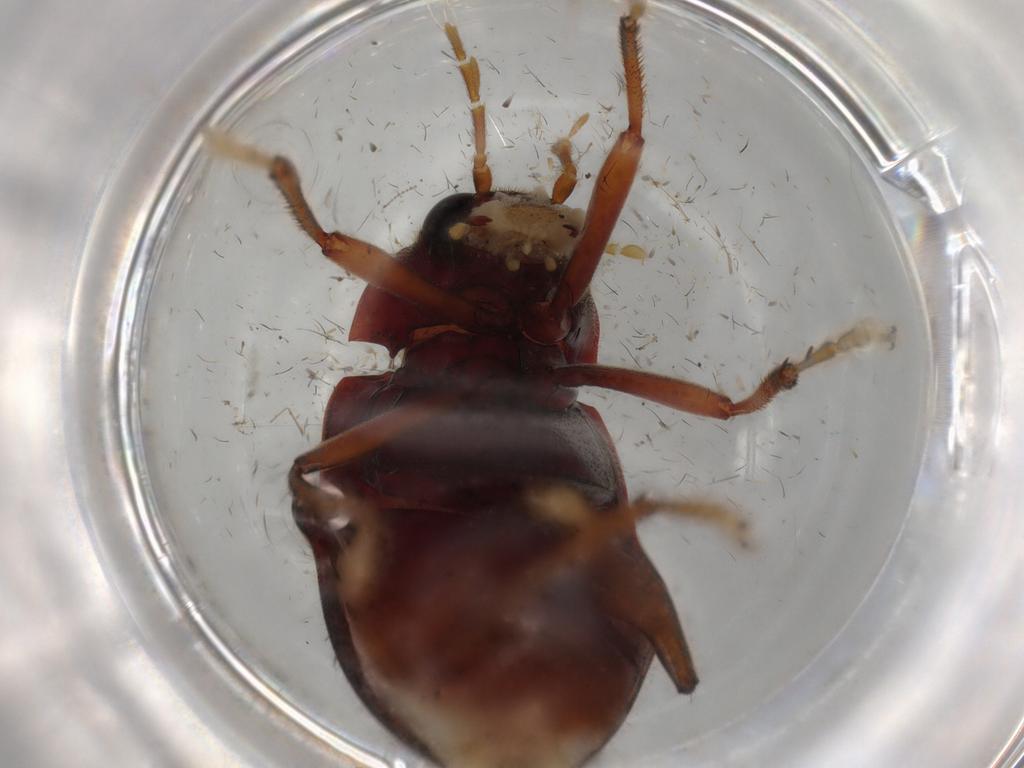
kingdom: Animalia
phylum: Arthropoda
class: Insecta
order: Coleoptera
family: Ptilodactylidae
